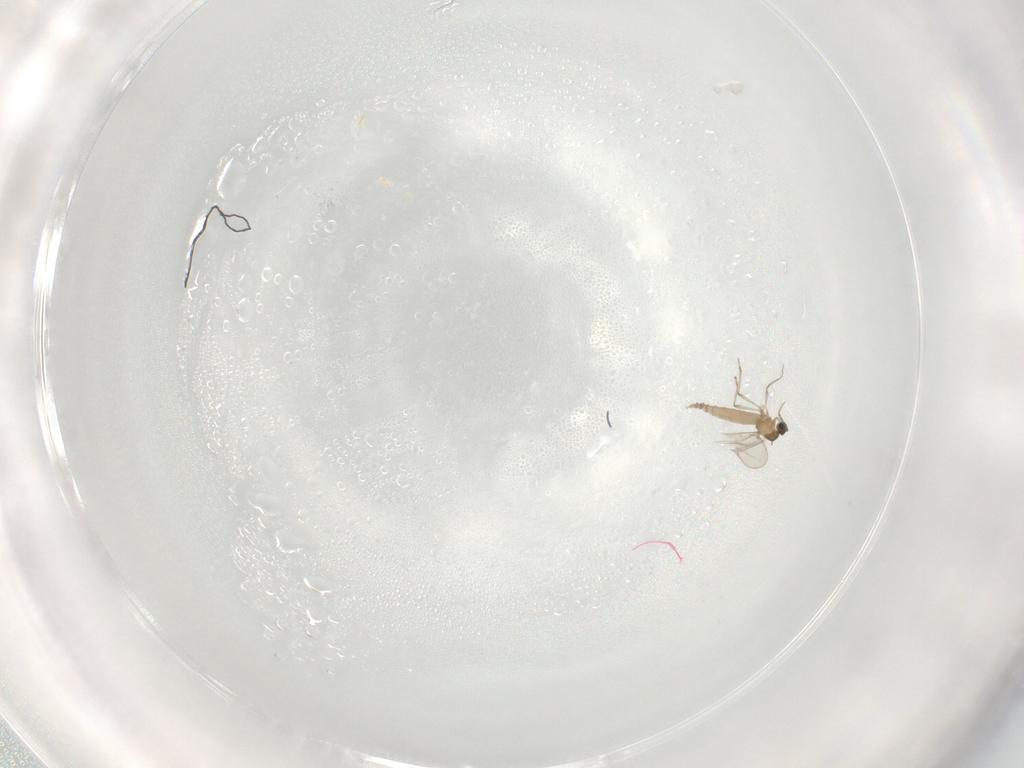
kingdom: Animalia
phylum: Arthropoda
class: Insecta
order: Diptera
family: Cecidomyiidae
